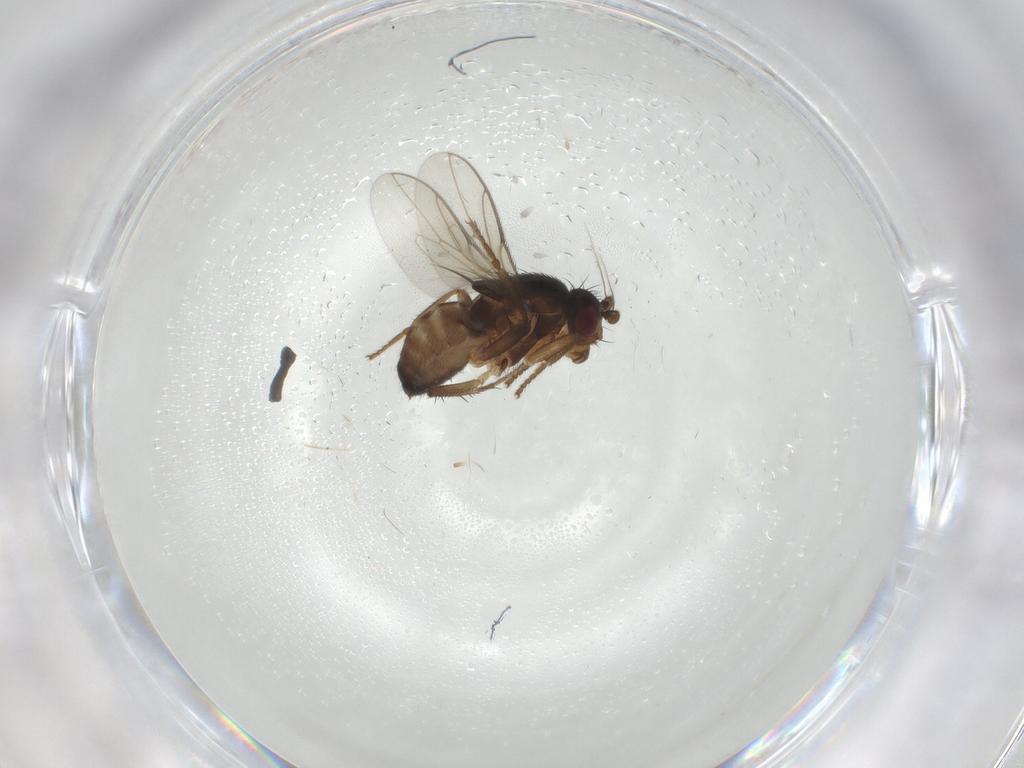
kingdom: Animalia
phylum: Arthropoda
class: Insecta
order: Diptera
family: Sphaeroceridae
